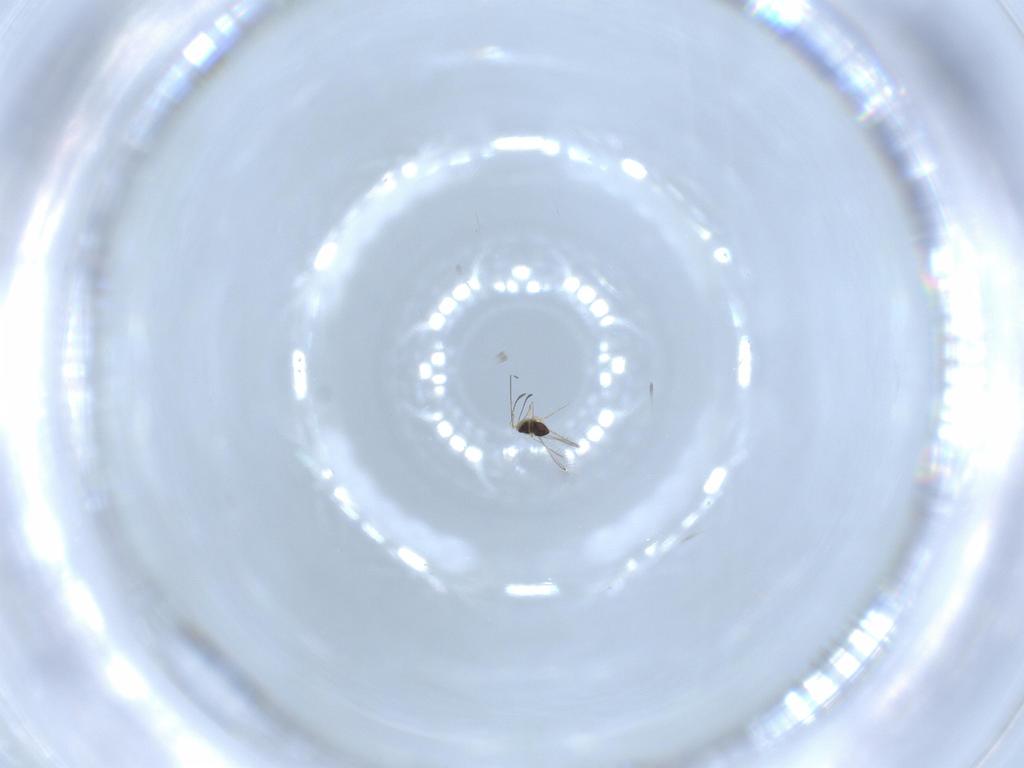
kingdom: Animalia
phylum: Arthropoda
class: Insecta
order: Hymenoptera
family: Mymaridae
